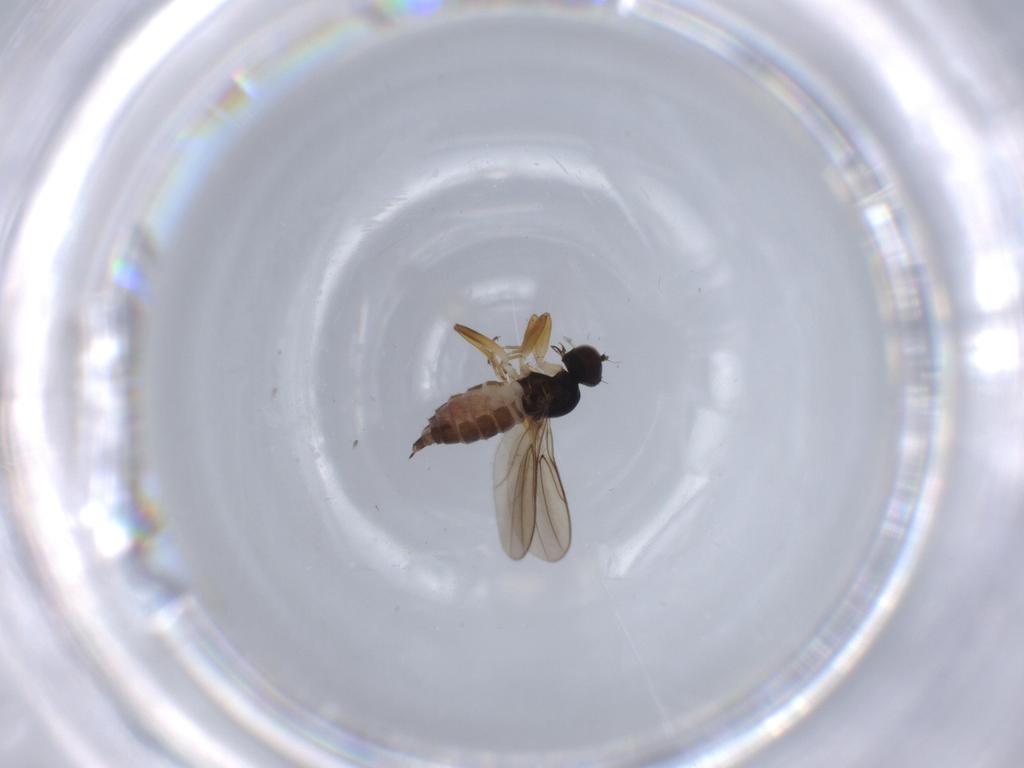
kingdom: Animalia
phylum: Arthropoda
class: Insecta
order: Diptera
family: Hybotidae
